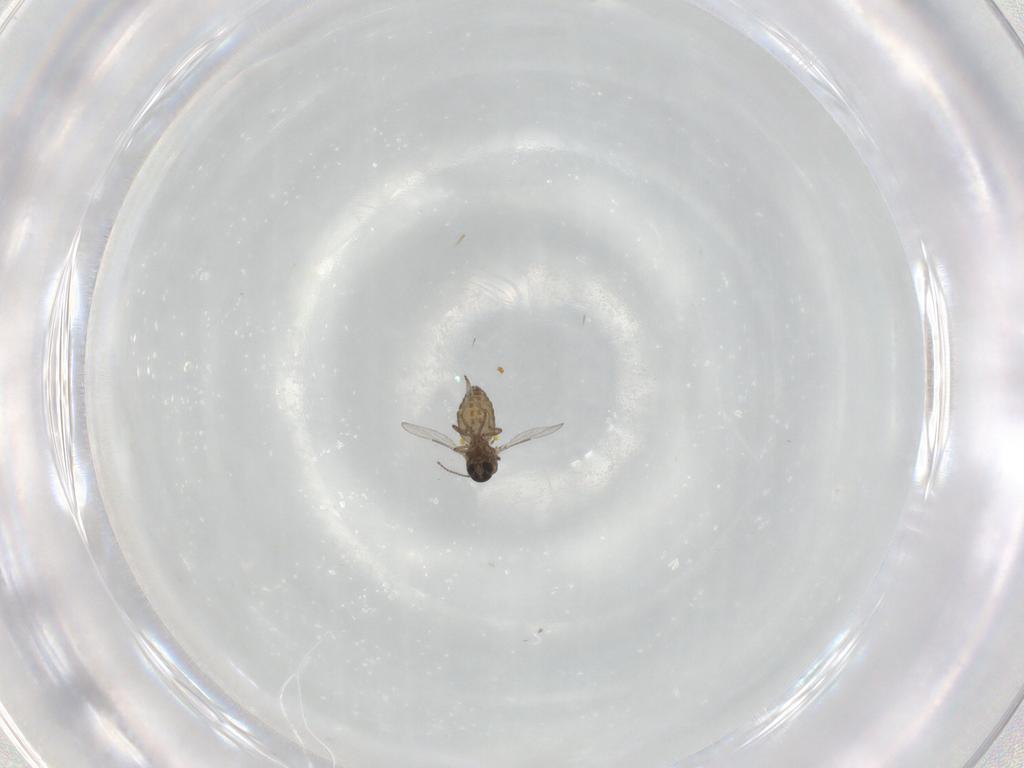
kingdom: Animalia
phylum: Arthropoda
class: Insecta
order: Diptera
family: Ceratopogonidae
